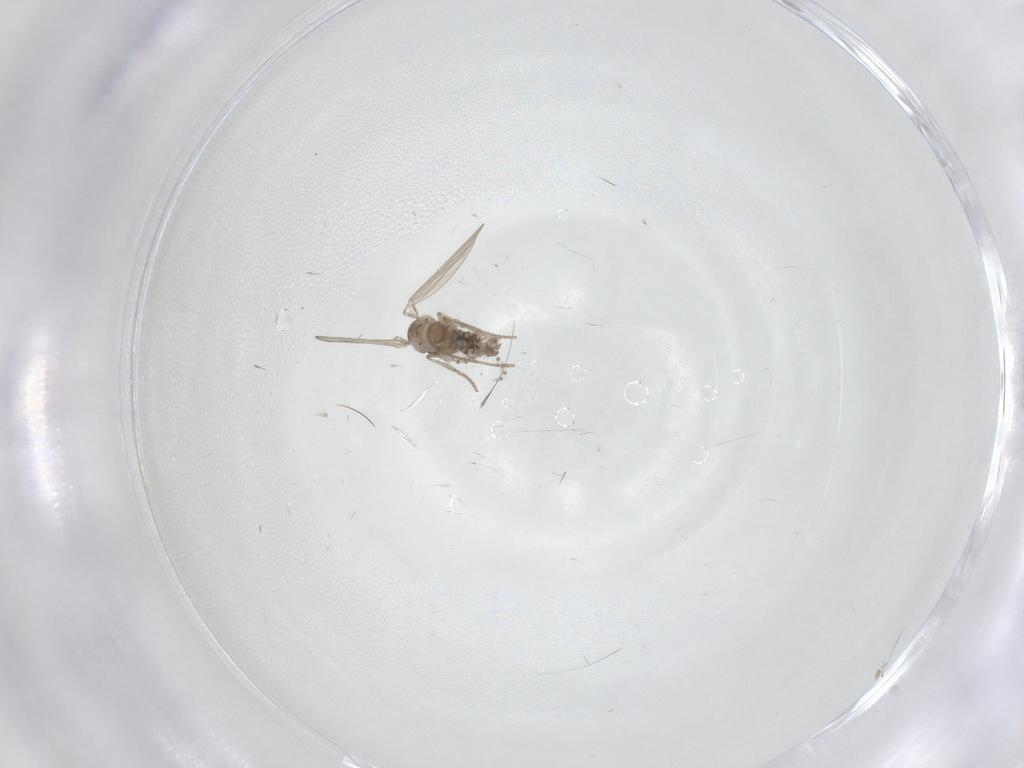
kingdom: Animalia
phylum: Arthropoda
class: Insecta
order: Diptera
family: Psychodidae
